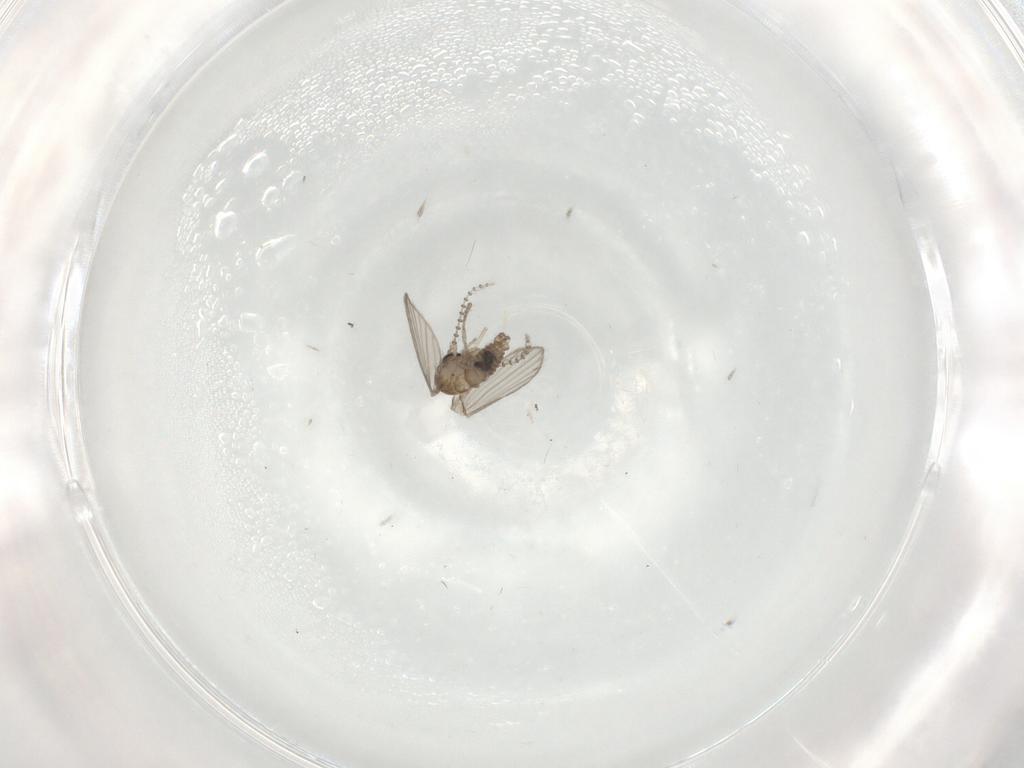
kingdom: Animalia
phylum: Arthropoda
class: Insecta
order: Diptera
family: Psychodidae
